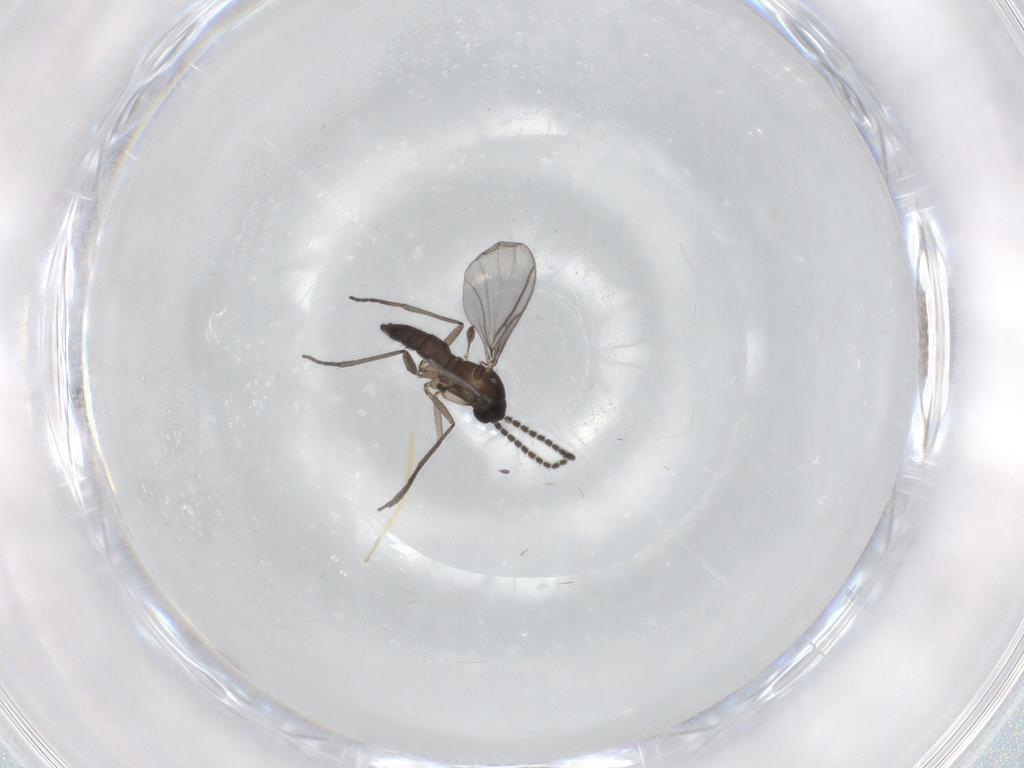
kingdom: Animalia
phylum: Arthropoda
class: Insecta
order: Diptera
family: Chironomidae
